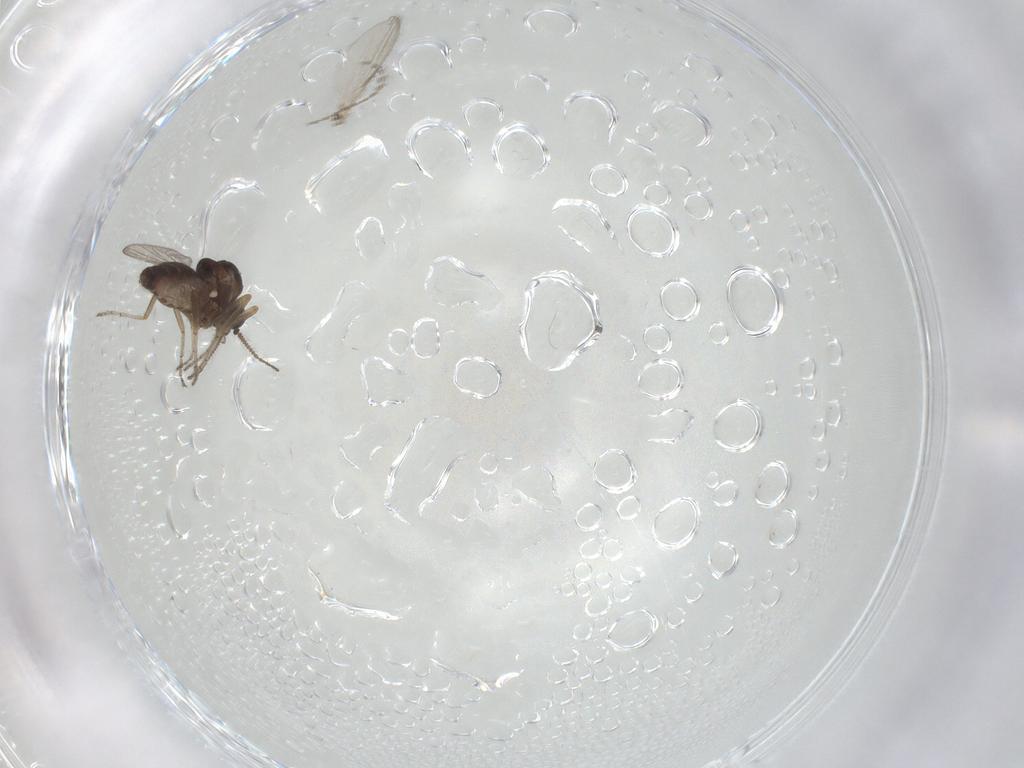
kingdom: Animalia
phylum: Arthropoda
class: Insecta
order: Diptera
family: Ceratopogonidae
